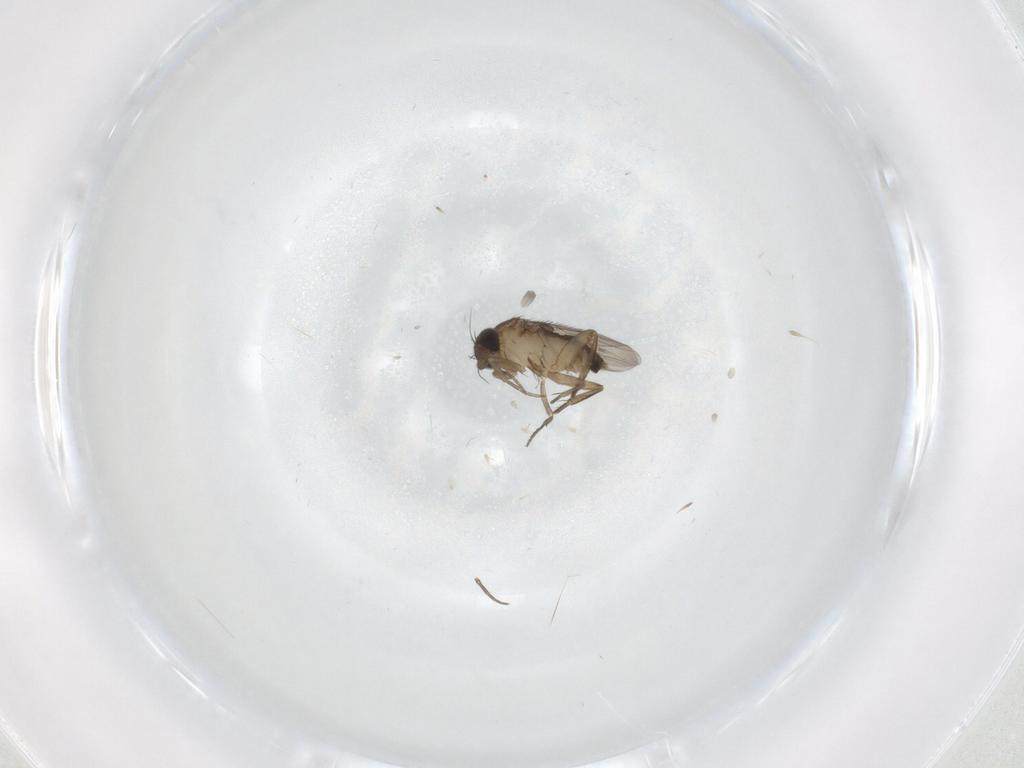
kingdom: Animalia
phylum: Arthropoda
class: Insecta
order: Diptera
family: Phoridae
